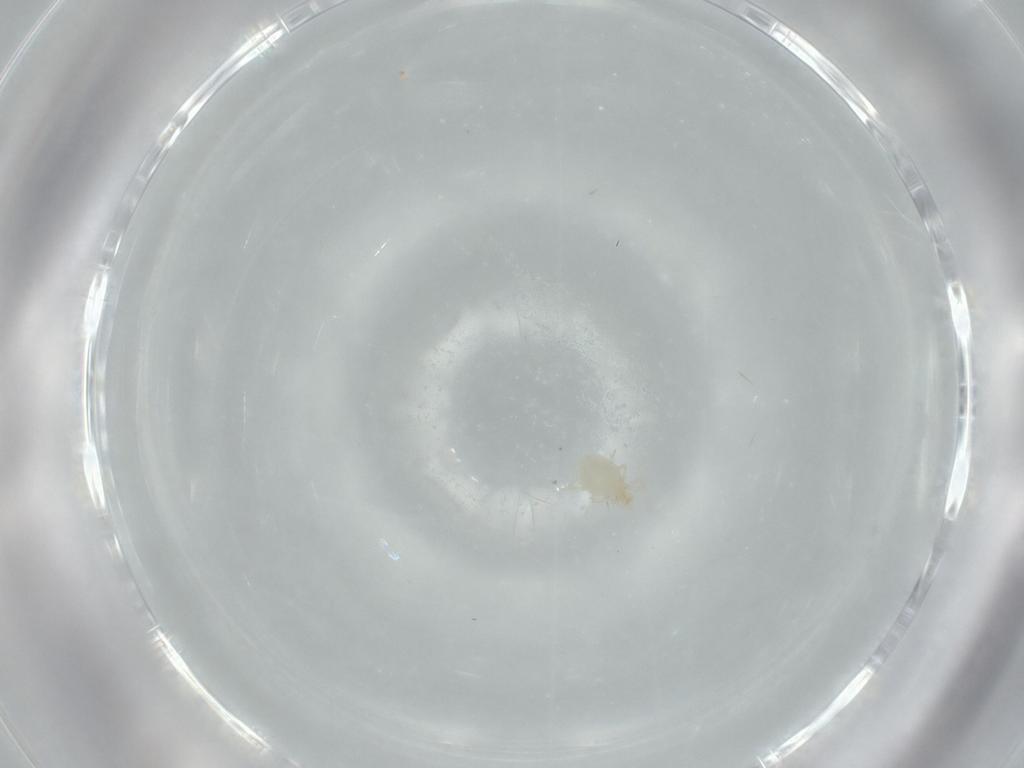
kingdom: Animalia
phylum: Arthropoda
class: Arachnida
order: Trombidiformes
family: Erythraeidae
